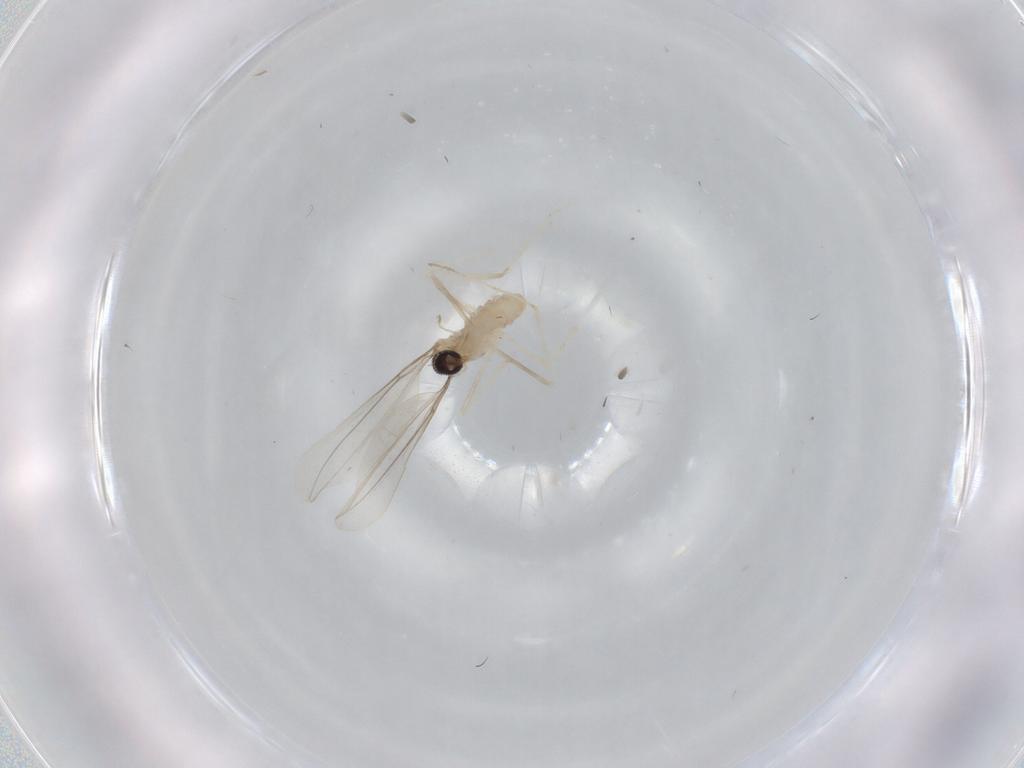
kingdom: Animalia
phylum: Arthropoda
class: Insecta
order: Diptera
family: Cecidomyiidae
